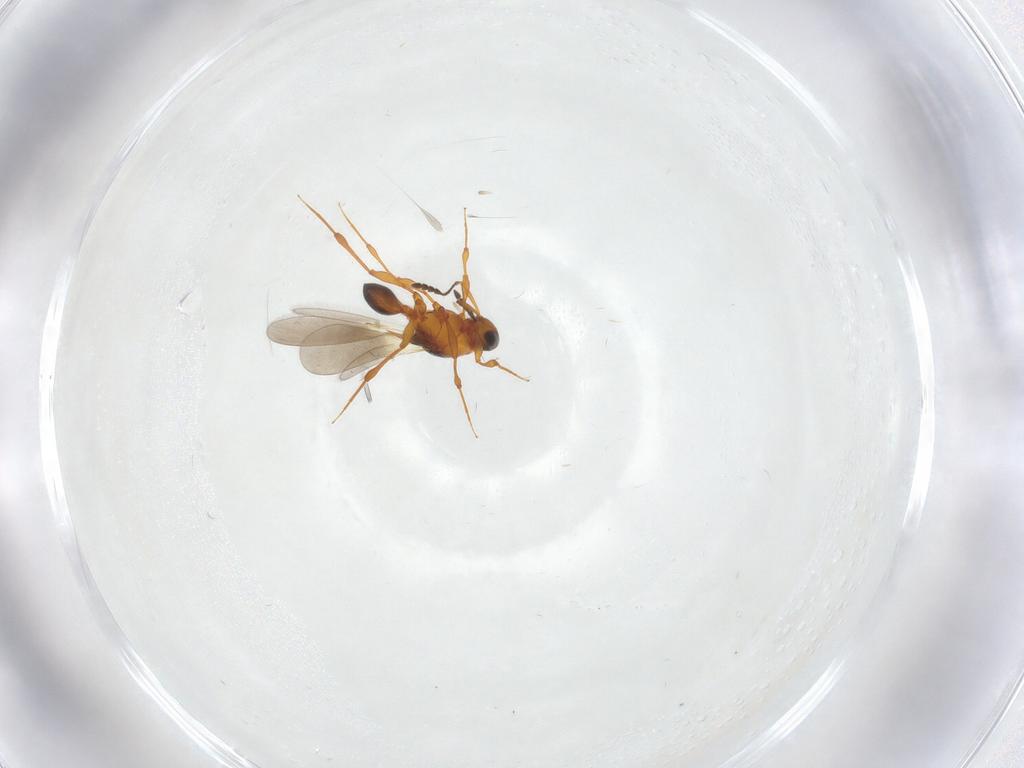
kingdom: Animalia
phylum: Arthropoda
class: Insecta
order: Hymenoptera
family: Platygastridae
